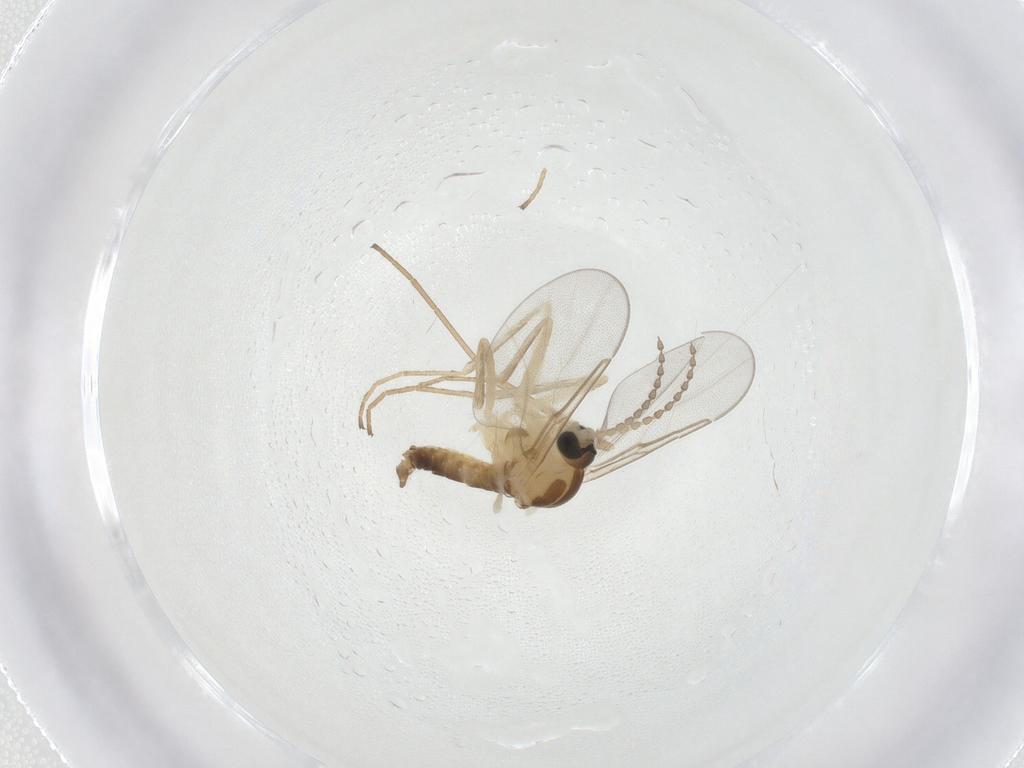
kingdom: Animalia
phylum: Arthropoda
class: Insecta
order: Diptera
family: Cecidomyiidae
